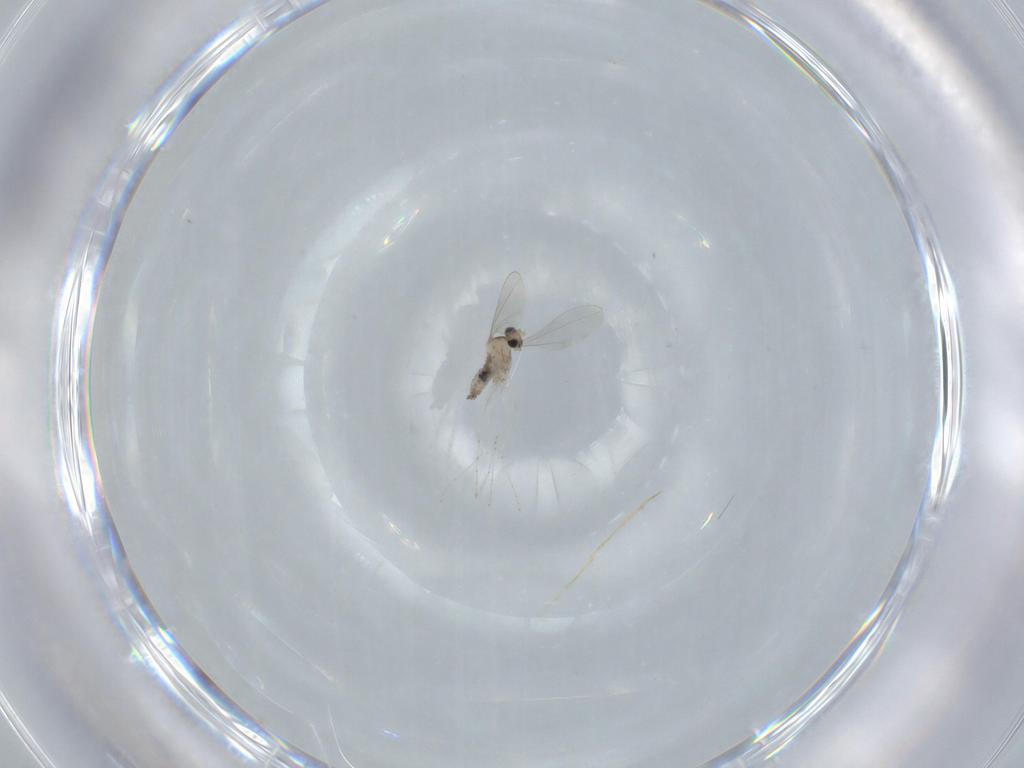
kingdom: Animalia
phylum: Arthropoda
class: Insecta
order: Diptera
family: Cecidomyiidae
